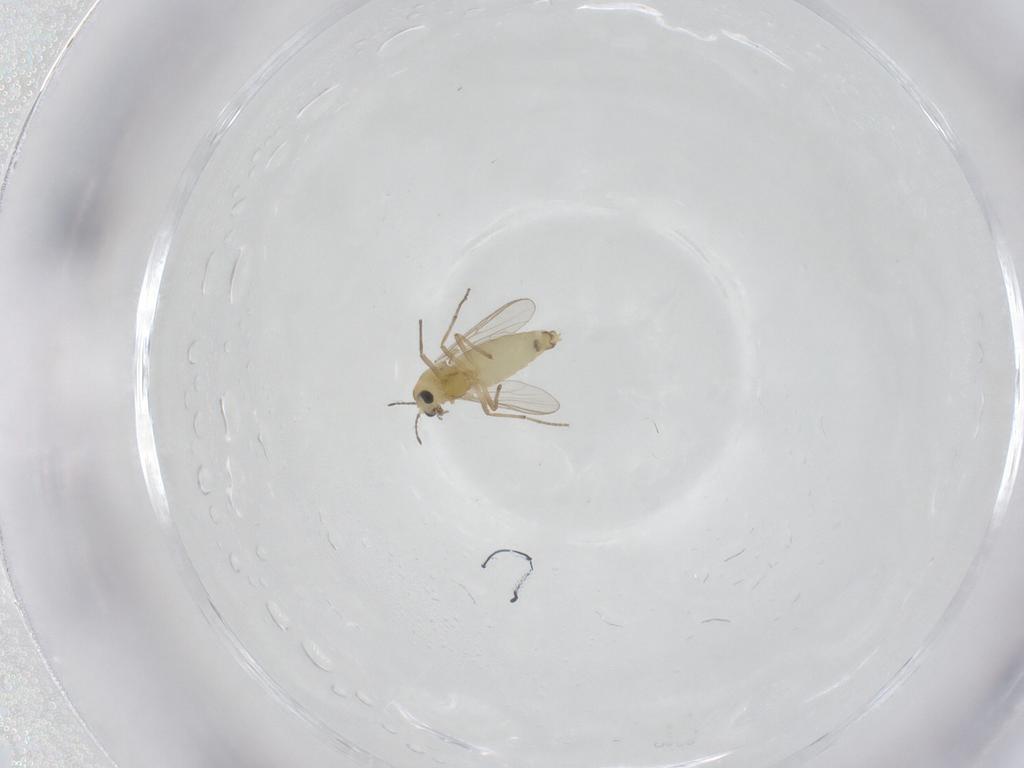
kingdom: Animalia
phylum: Arthropoda
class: Insecta
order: Diptera
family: Chironomidae
